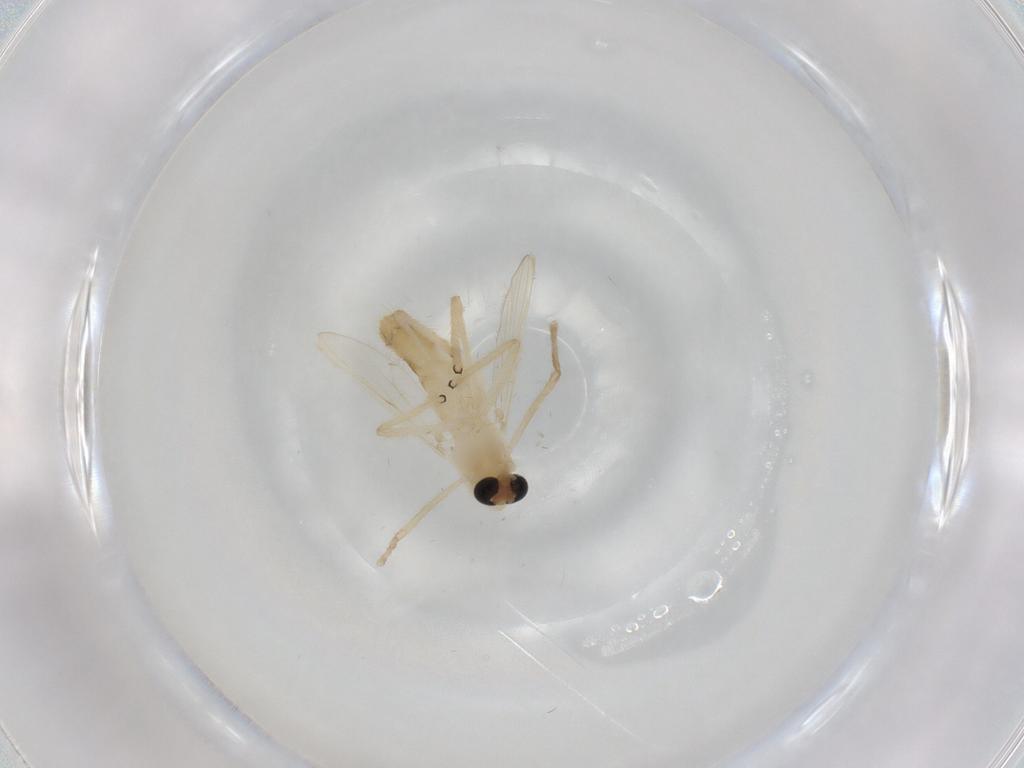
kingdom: Animalia
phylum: Arthropoda
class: Insecta
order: Diptera
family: Chironomidae
